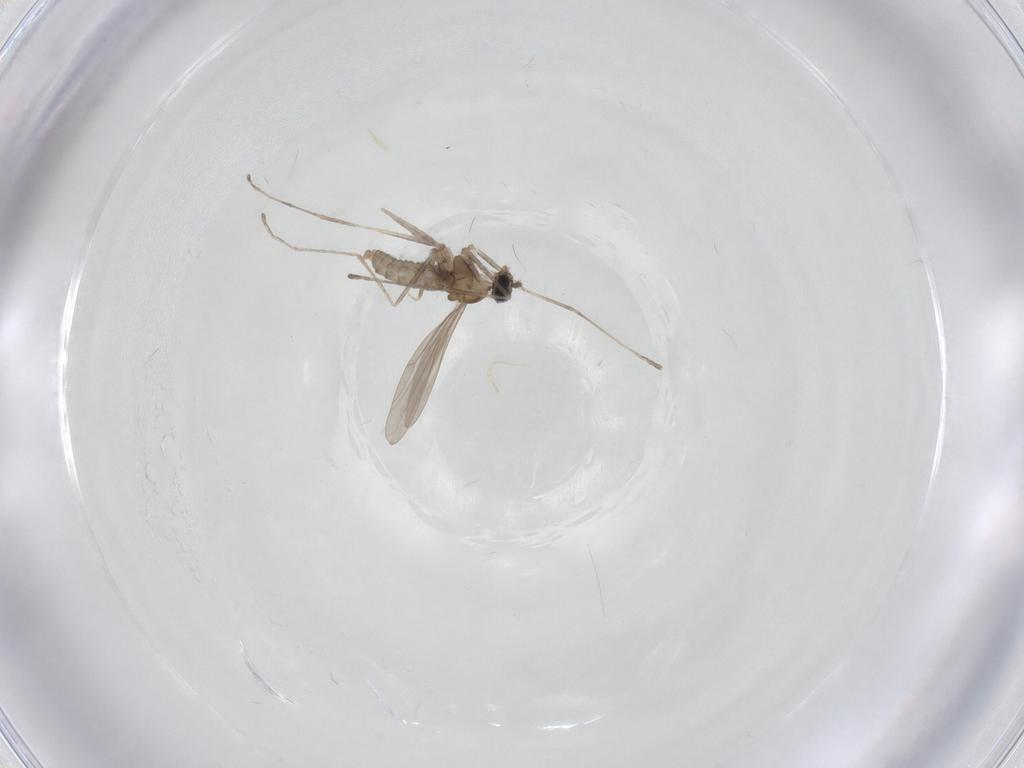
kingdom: Animalia
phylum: Arthropoda
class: Insecta
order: Diptera
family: Cecidomyiidae
